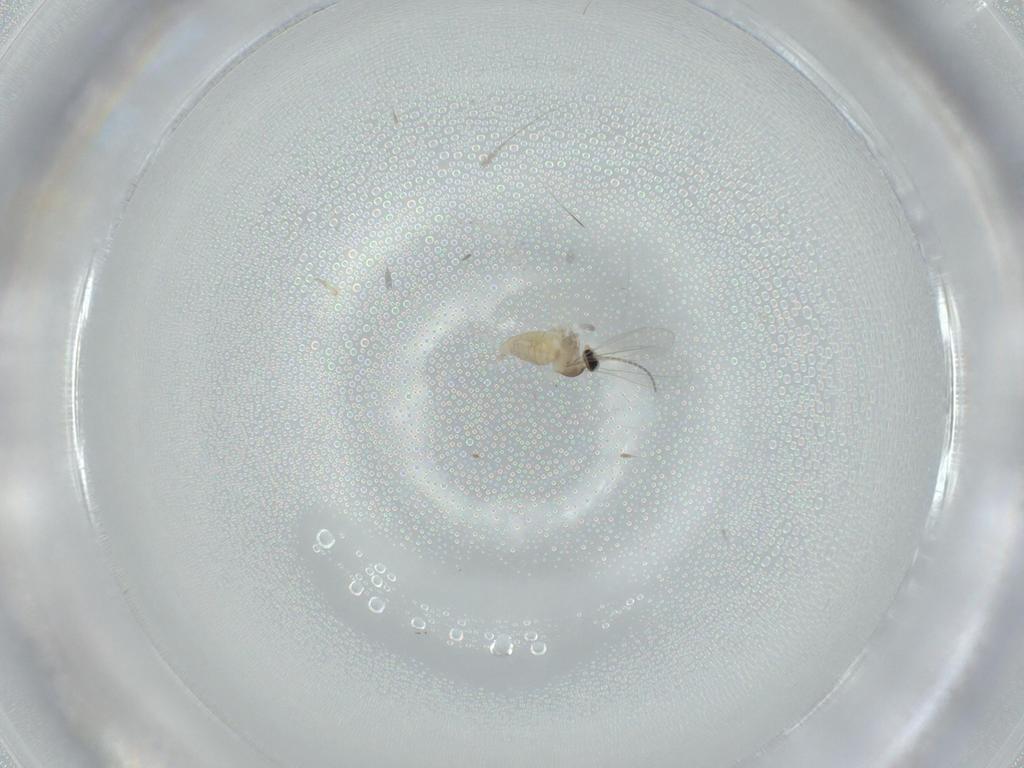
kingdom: Animalia
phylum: Arthropoda
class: Insecta
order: Diptera
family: Cecidomyiidae
